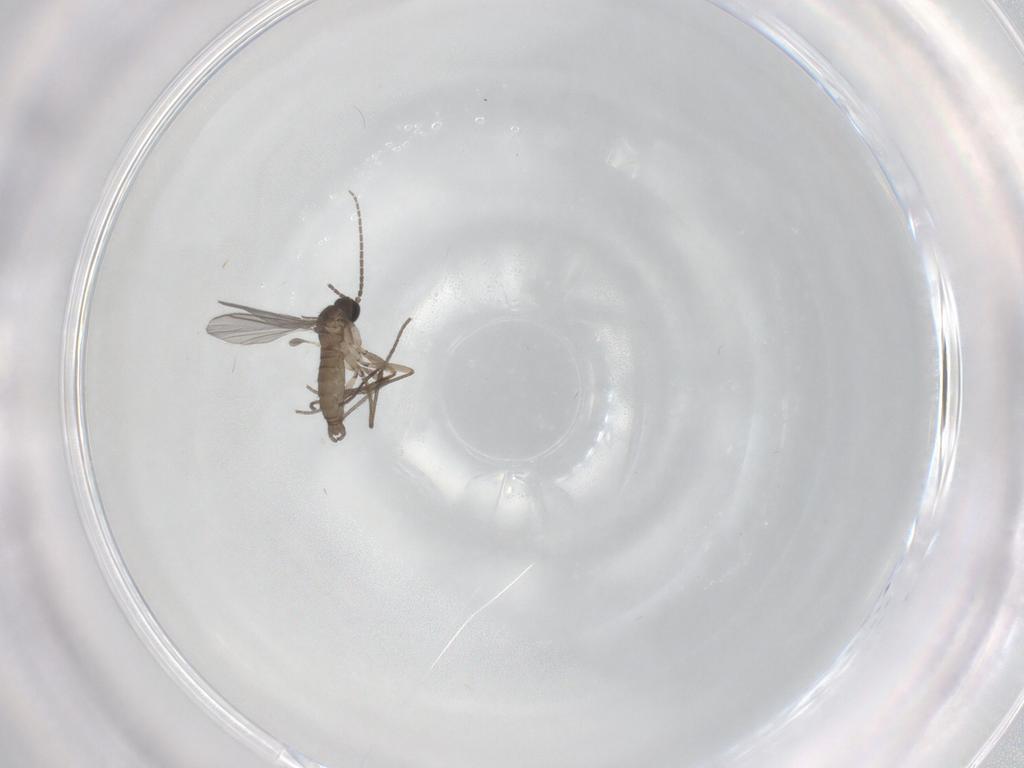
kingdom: Animalia
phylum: Arthropoda
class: Insecta
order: Diptera
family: Sciaridae
